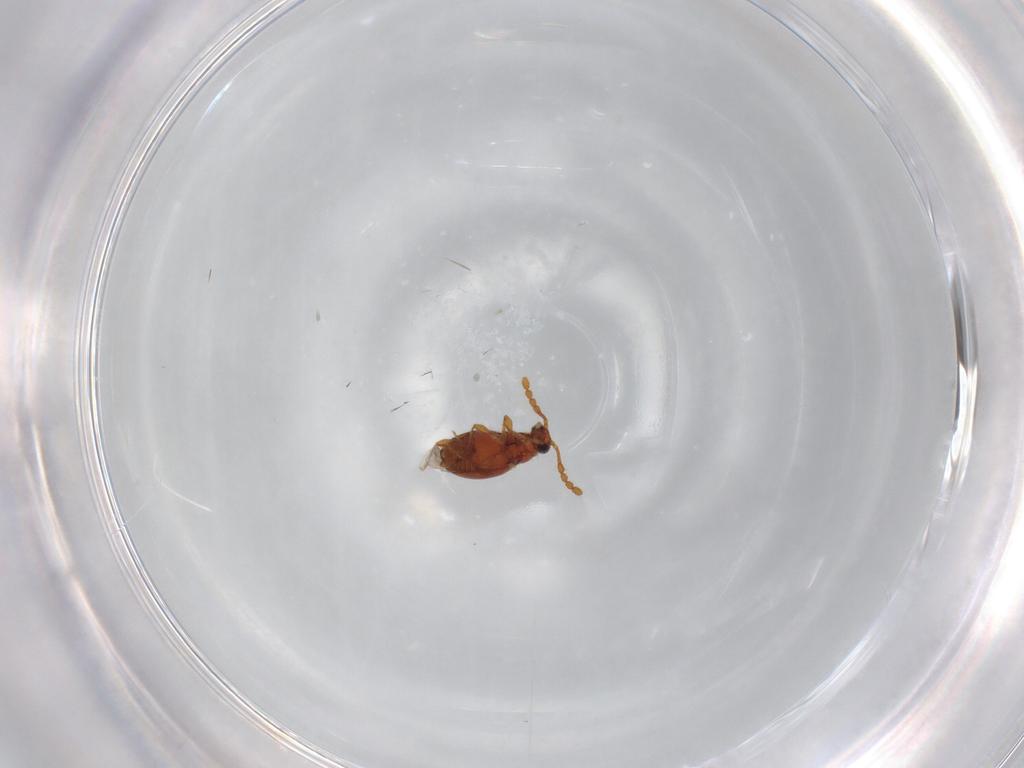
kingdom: Animalia
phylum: Arthropoda
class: Insecta
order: Coleoptera
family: Staphylinidae
